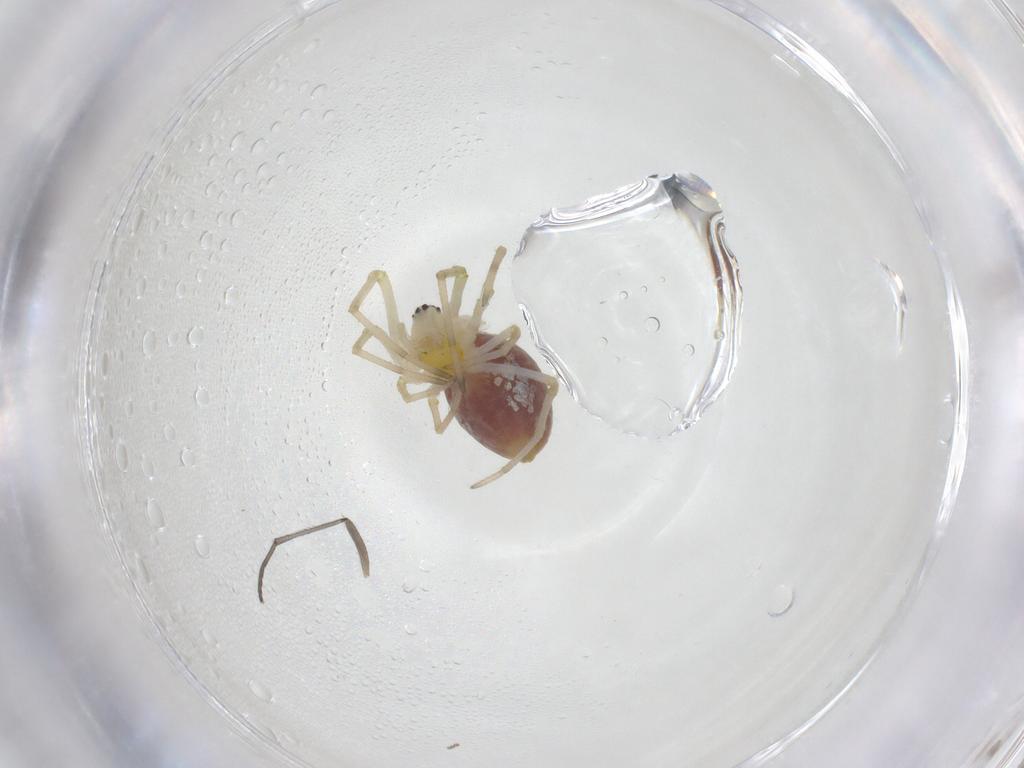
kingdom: Animalia
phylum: Arthropoda
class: Arachnida
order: Araneae
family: Tetragnathidae
